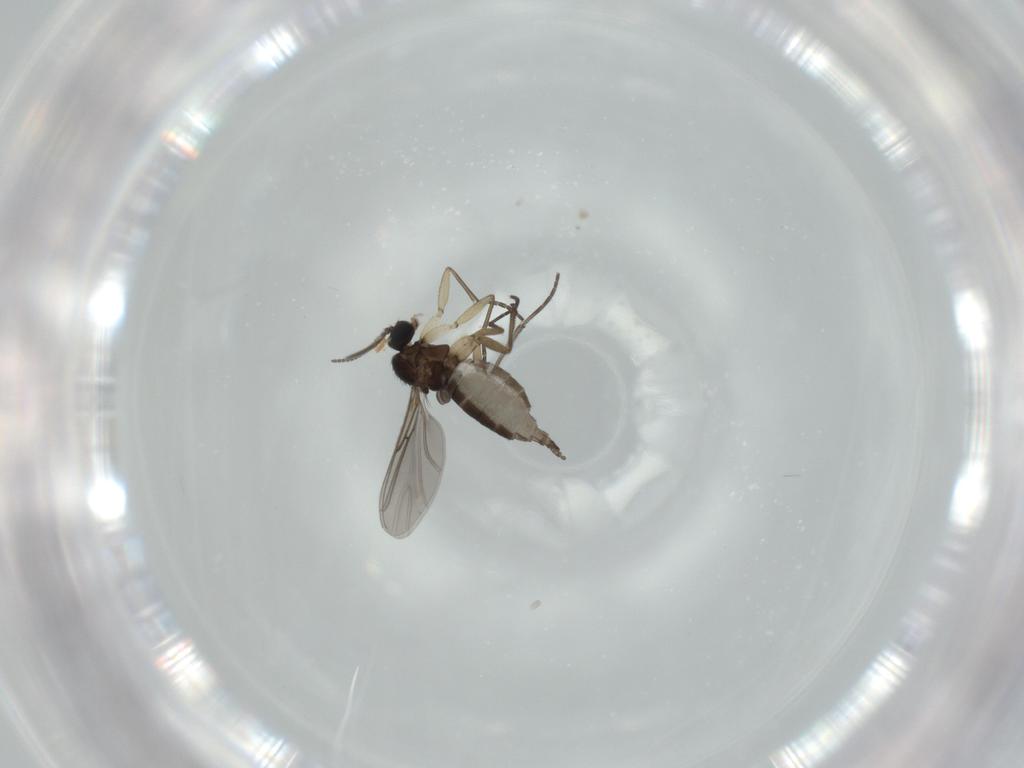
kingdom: Animalia
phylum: Arthropoda
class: Insecta
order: Diptera
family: Sciaridae
